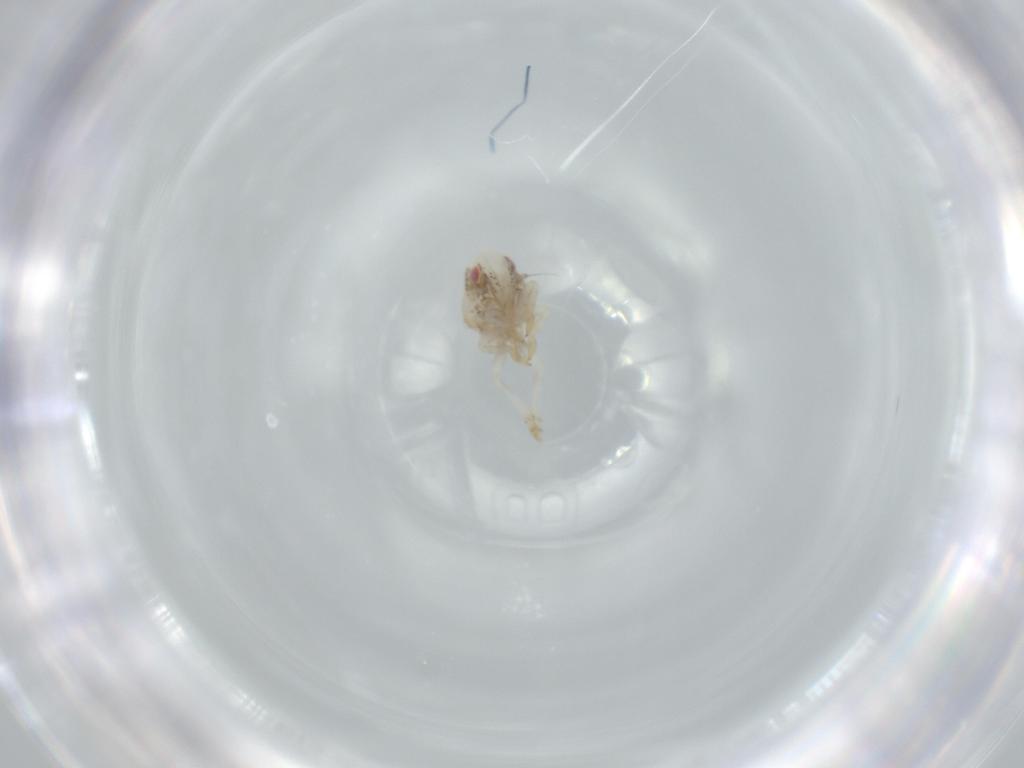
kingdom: Animalia
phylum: Arthropoda
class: Insecta
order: Hemiptera
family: Acanaloniidae
